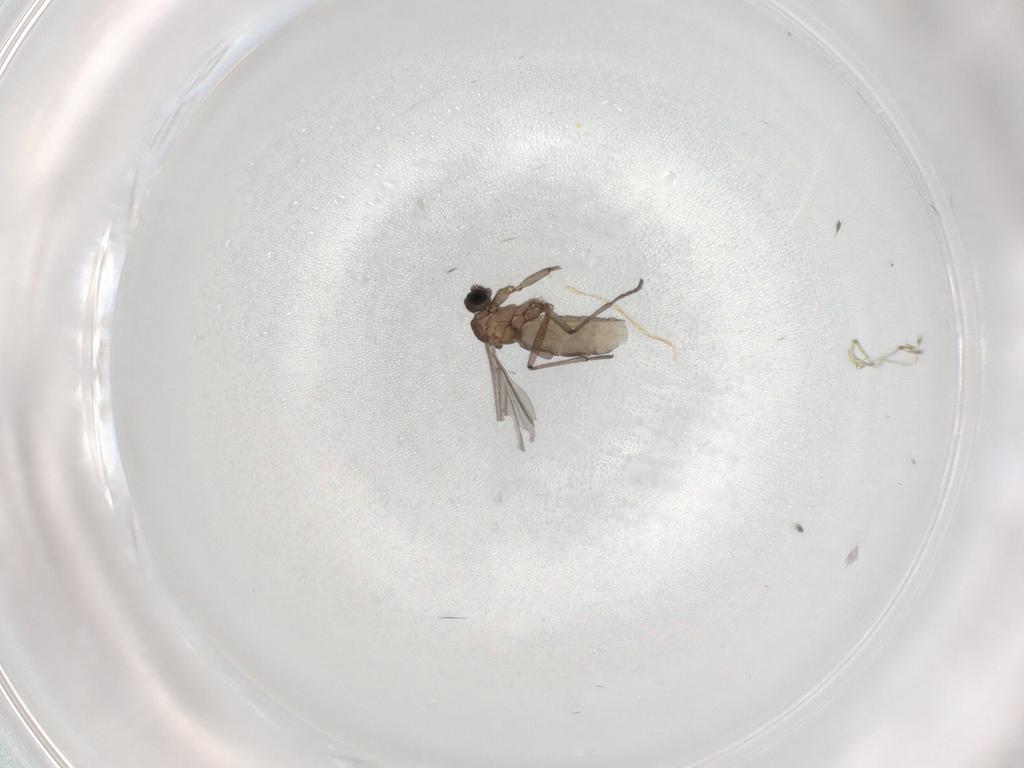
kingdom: Animalia
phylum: Arthropoda
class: Insecta
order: Diptera
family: Sciaridae
